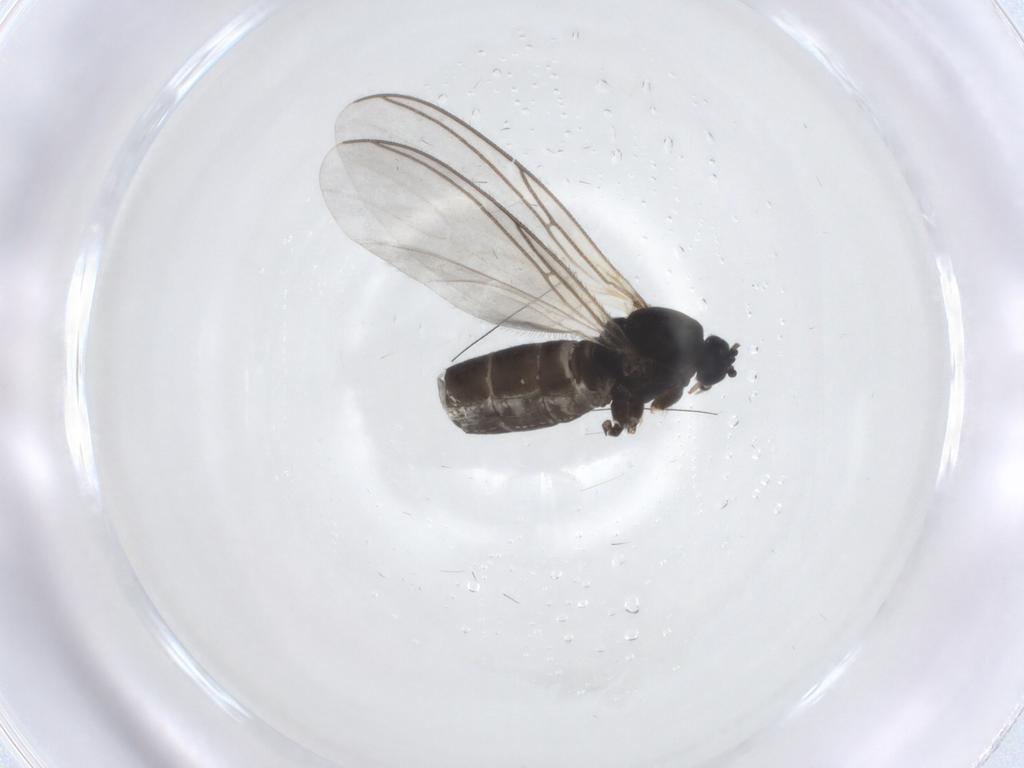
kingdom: Animalia
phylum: Arthropoda
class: Insecta
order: Diptera
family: Sciaridae
